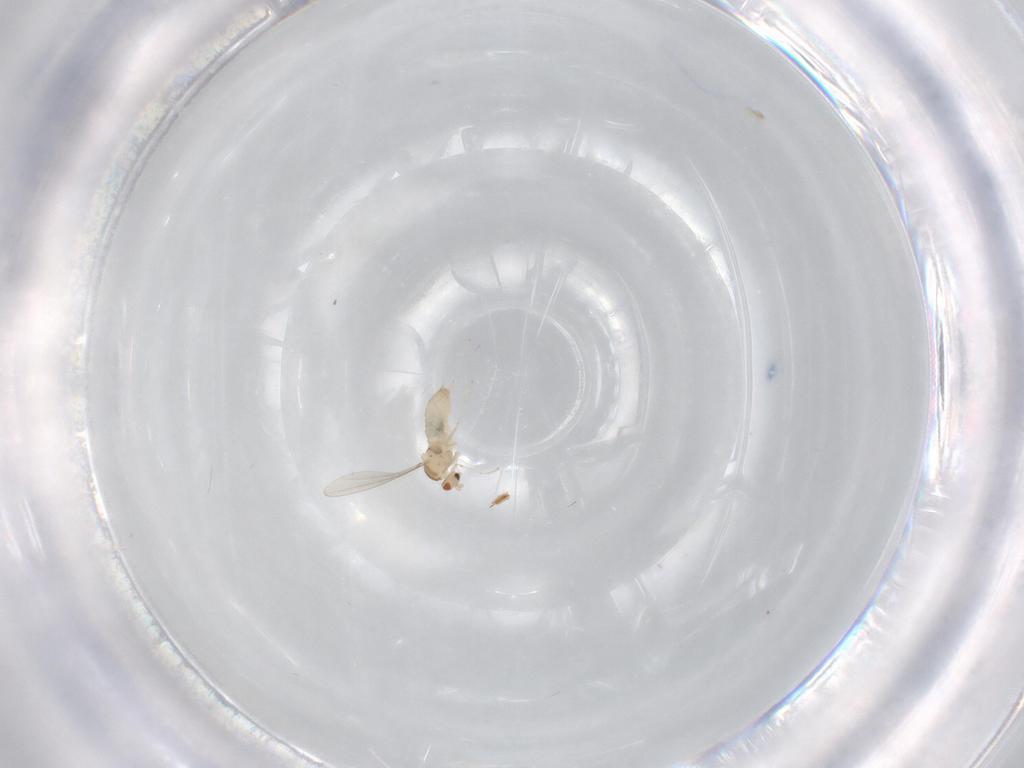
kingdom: Animalia
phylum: Arthropoda
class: Insecta
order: Diptera
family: Cecidomyiidae
